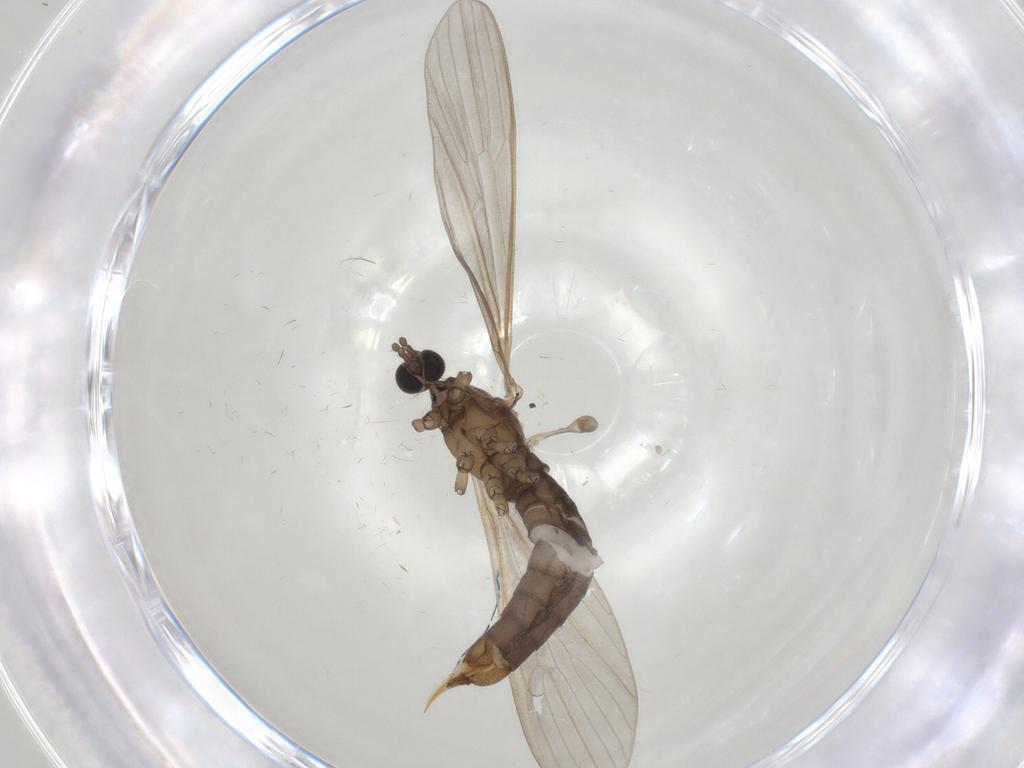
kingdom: Animalia
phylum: Arthropoda
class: Insecta
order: Diptera
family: Limoniidae
